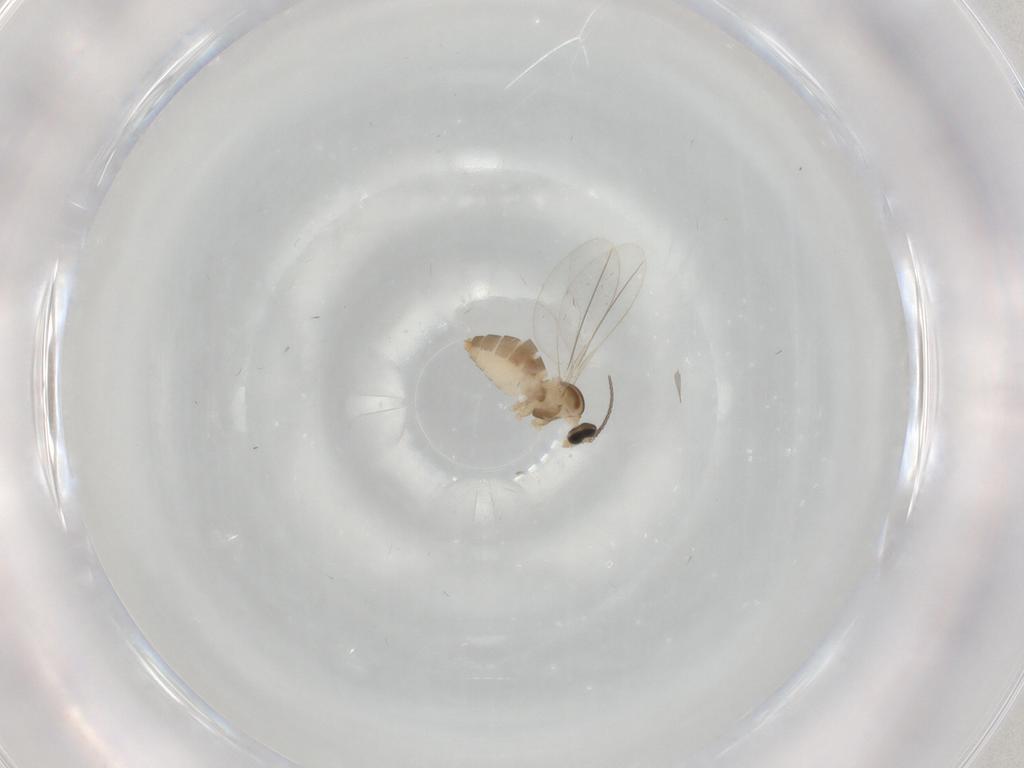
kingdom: Animalia
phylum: Arthropoda
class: Insecta
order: Diptera
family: Cecidomyiidae
